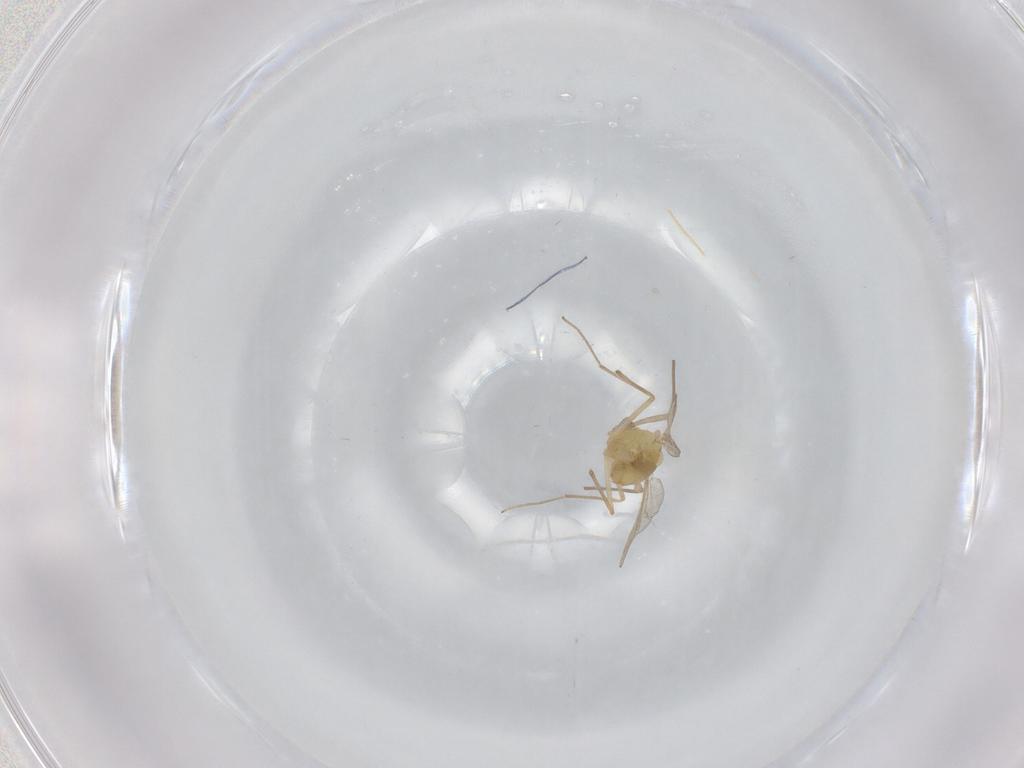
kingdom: Animalia
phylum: Arthropoda
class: Insecta
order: Diptera
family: Chironomidae
